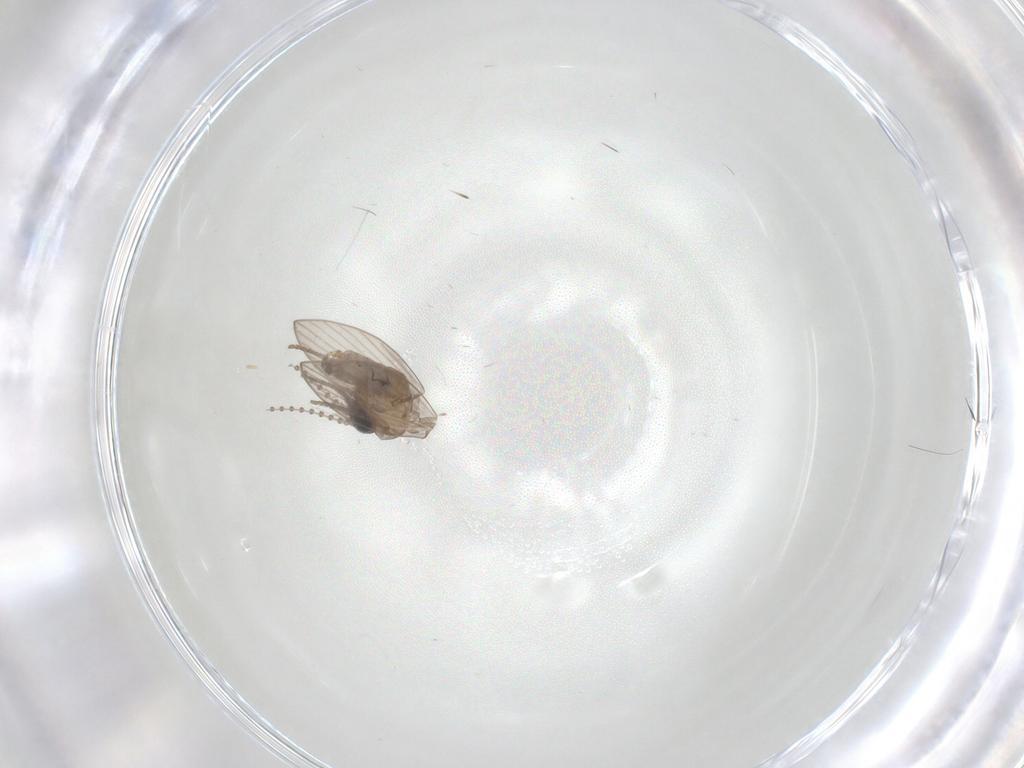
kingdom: Animalia
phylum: Arthropoda
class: Insecta
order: Diptera
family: Psychodidae
